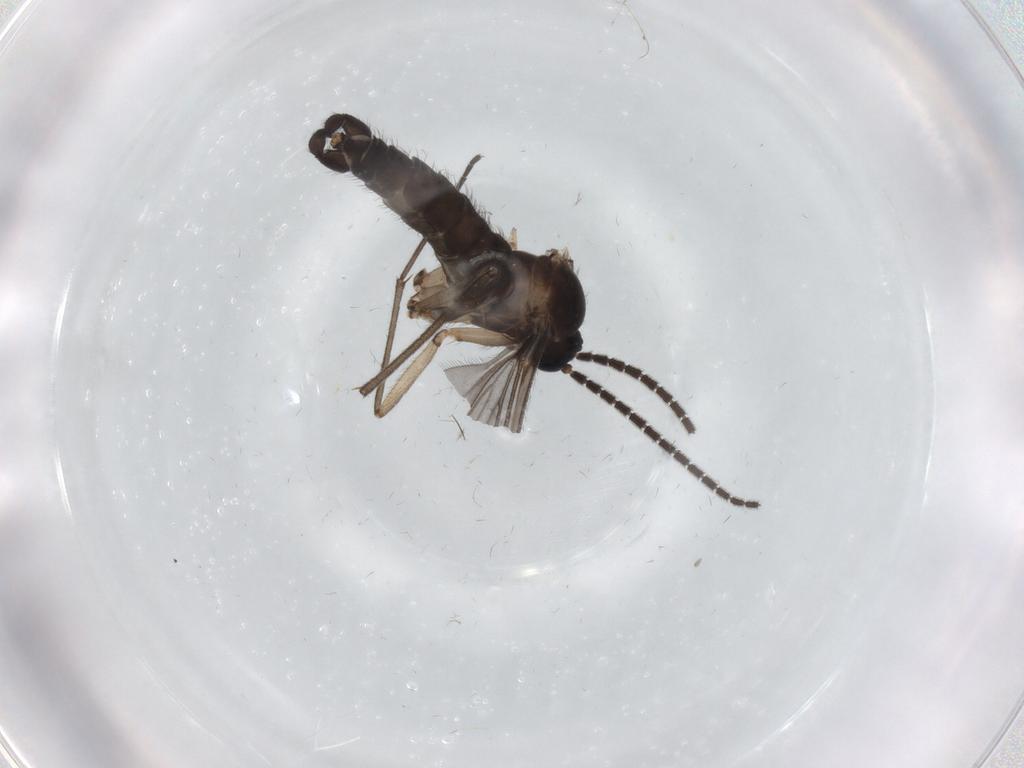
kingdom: Animalia
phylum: Arthropoda
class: Insecta
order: Diptera
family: Sciaridae
